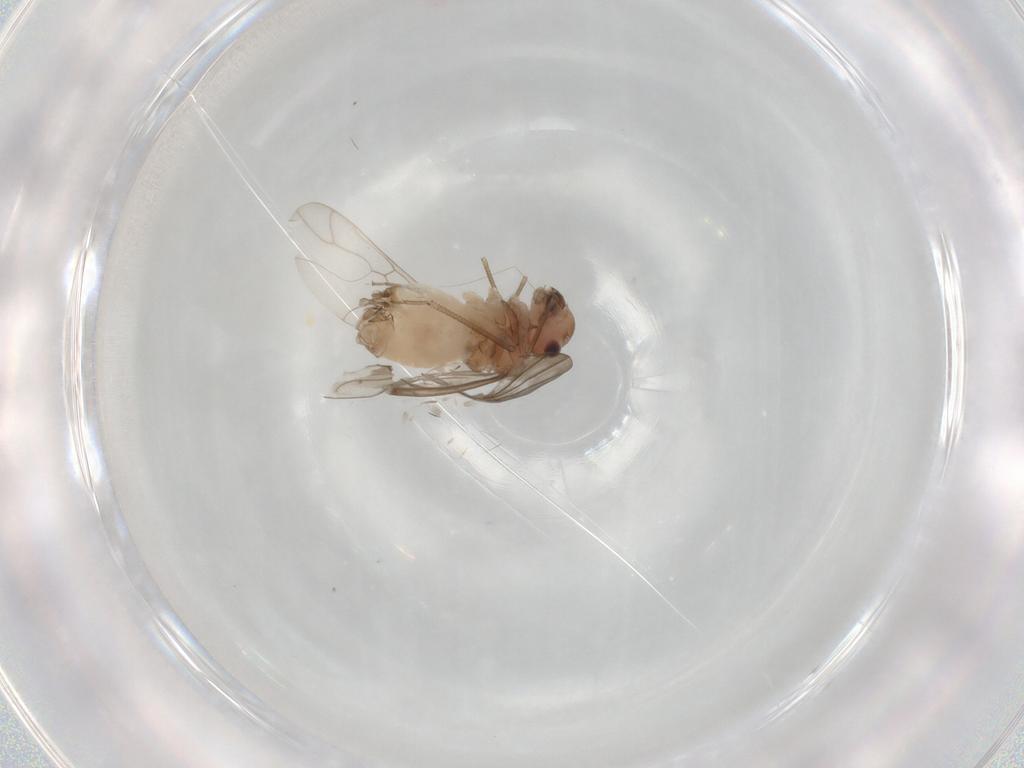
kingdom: Animalia
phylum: Arthropoda
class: Insecta
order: Psocodea
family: Peripsocidae
